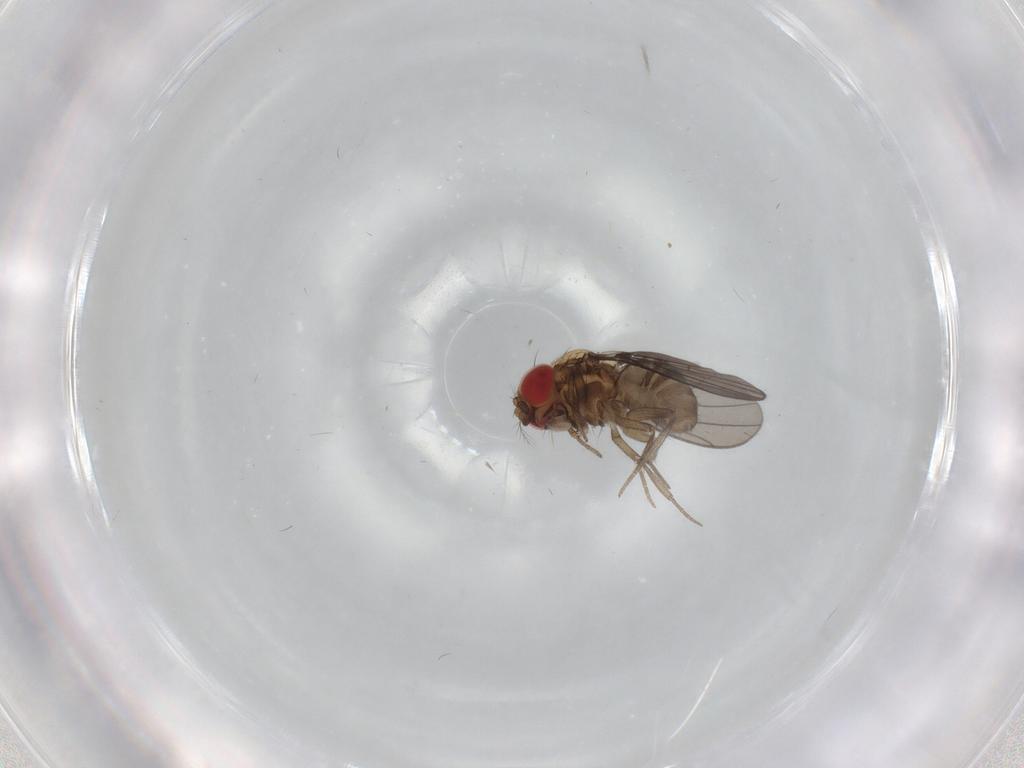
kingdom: Animalia
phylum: Arthropoda
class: Insecta
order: Diptera
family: Drosophilidae
